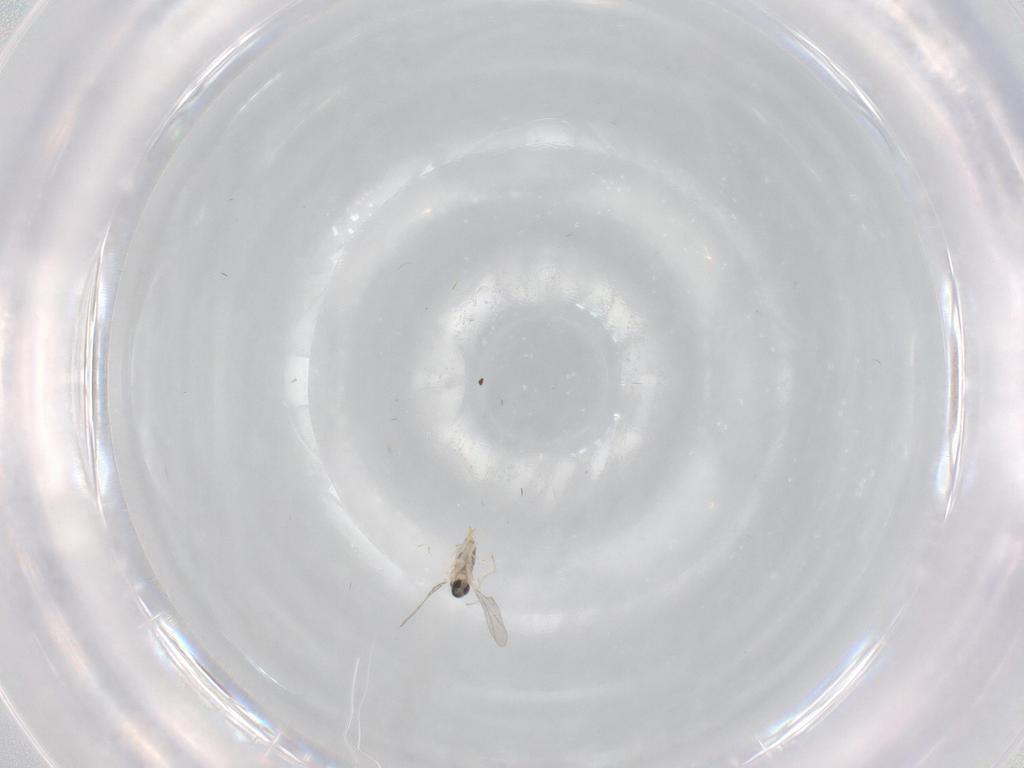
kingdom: Animalia
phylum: Arthropoda
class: Insecta
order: Diptera
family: Cecidomyiidae
